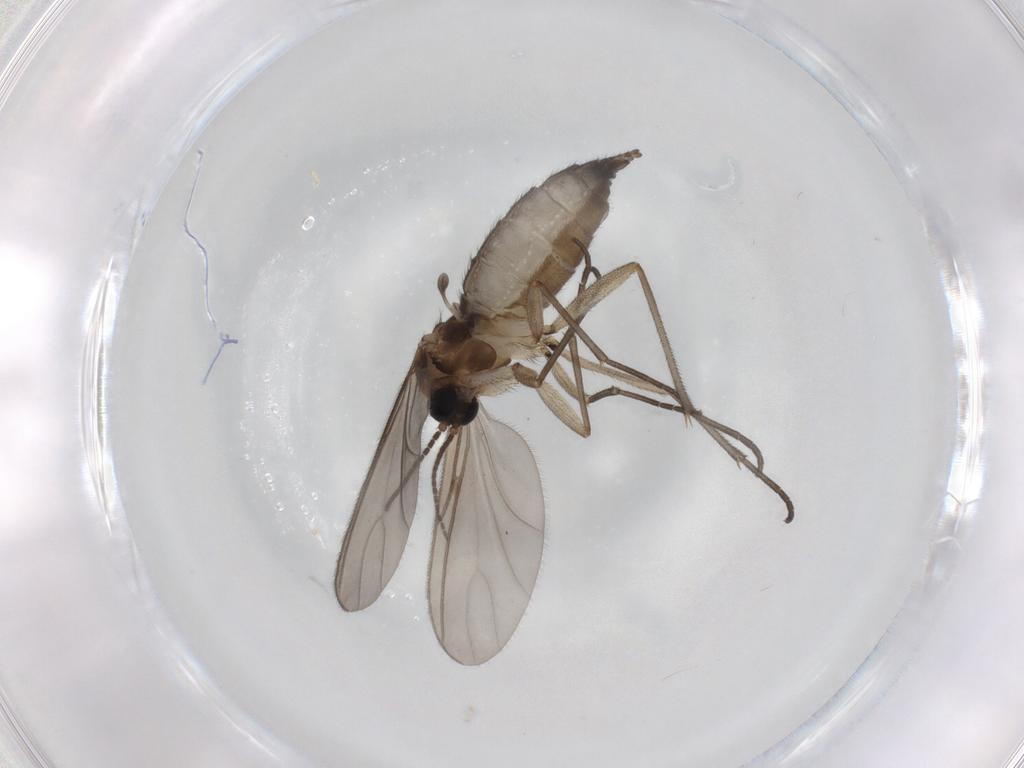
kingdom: Animalia
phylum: Arthropoda
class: Insecta
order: Diptera
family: Sciaridae
